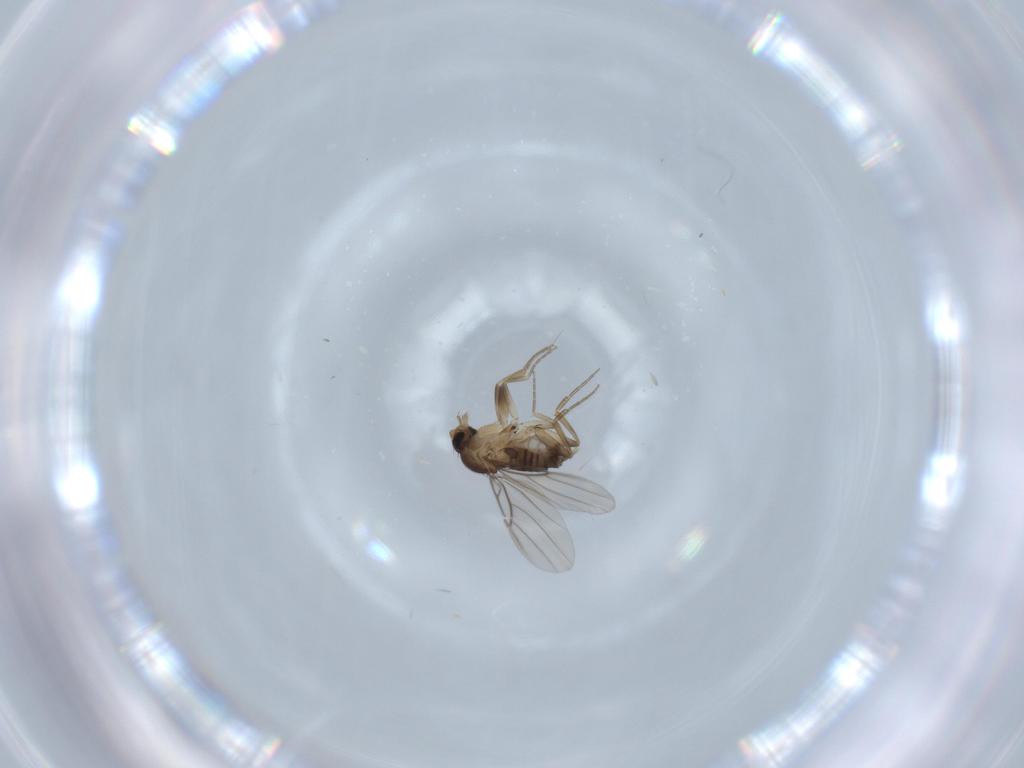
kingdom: Animalia
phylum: Arthropoda
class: Insecta
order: Diptera
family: Phoridae
